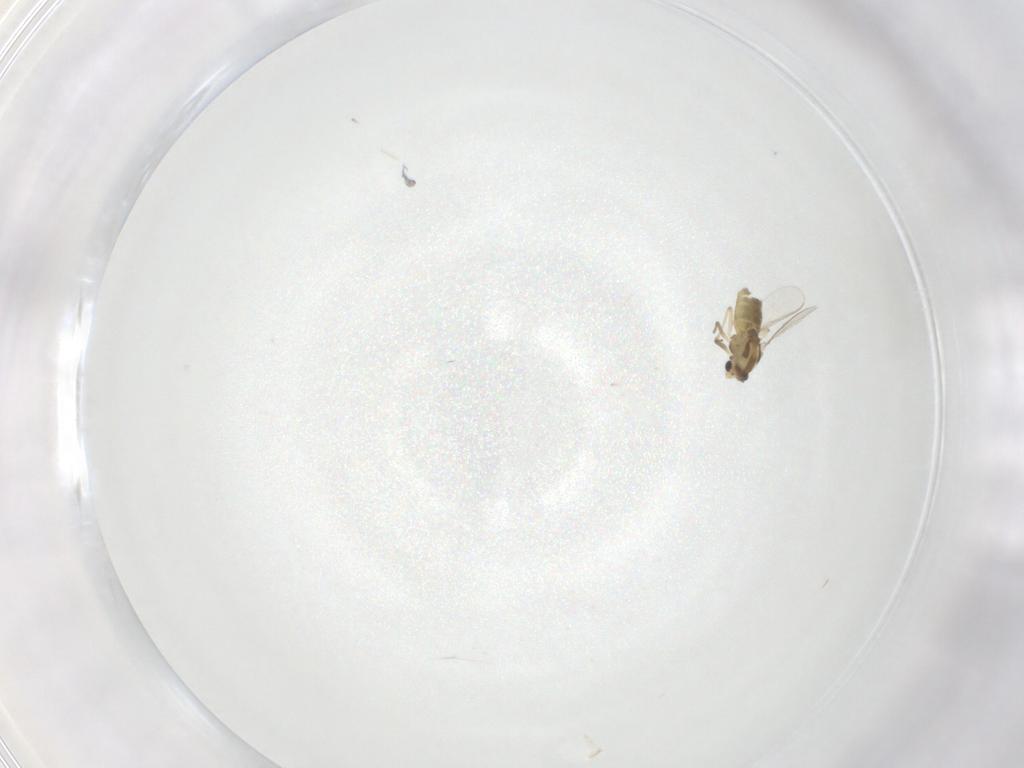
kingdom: Animalia
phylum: Arthropoda
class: Insecta
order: Diptera
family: Chironomidae
